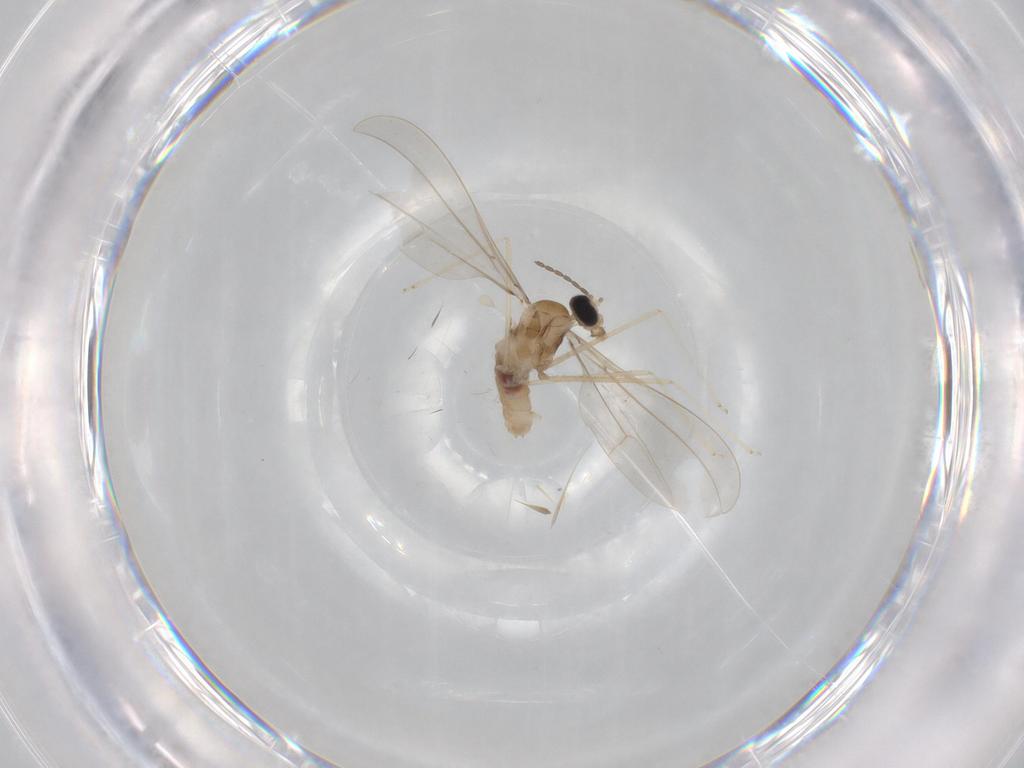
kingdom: Animalia
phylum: Arthropoda
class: Insecta
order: Diptera
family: Cecidomyiidae
